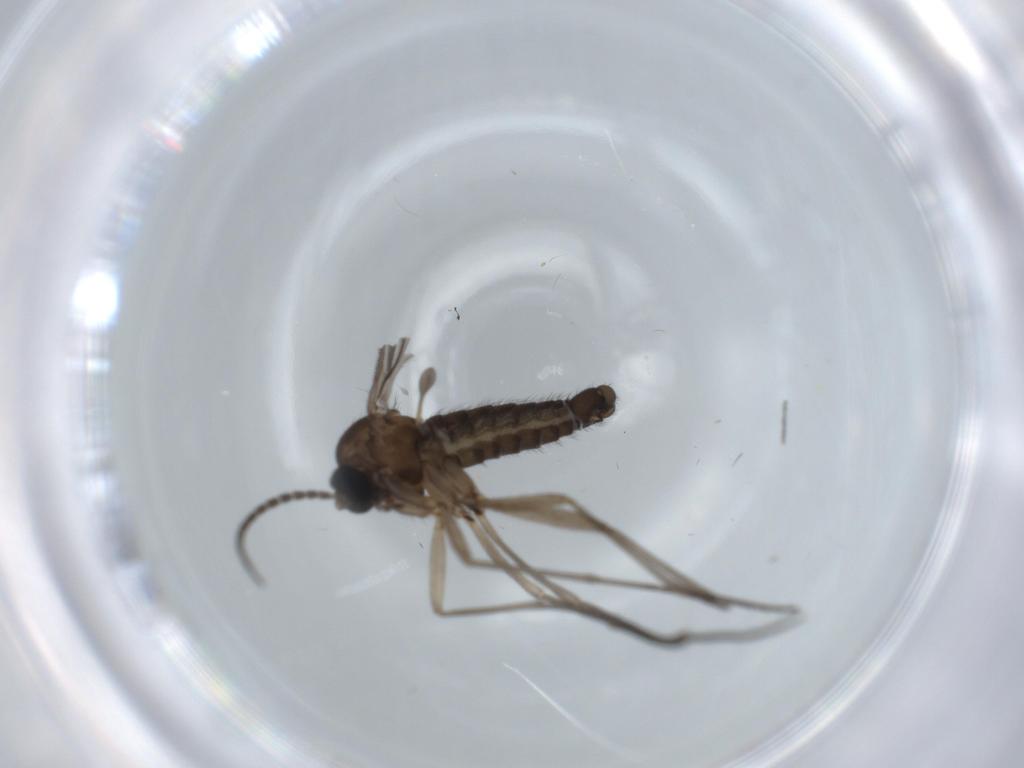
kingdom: Animalia
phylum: Arthropoda
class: Insecta
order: Diptera
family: Sciaridae
